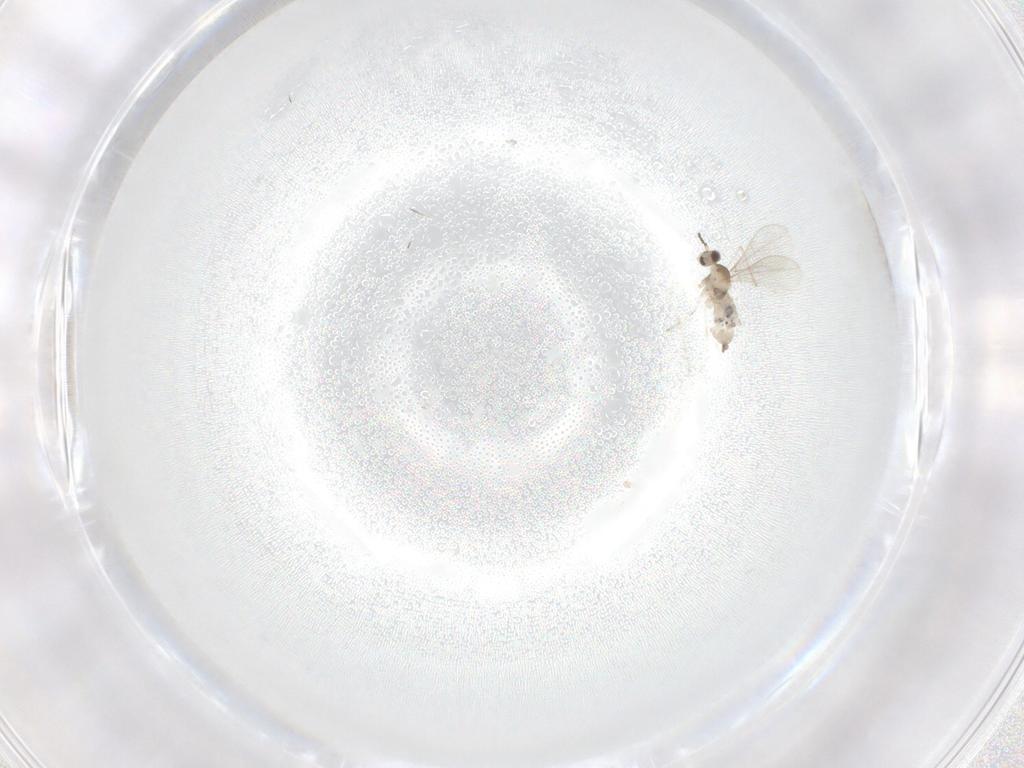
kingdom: Animalia
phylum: Arthropoda
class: Insecta
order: Diptera
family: Cecidomyiidae
